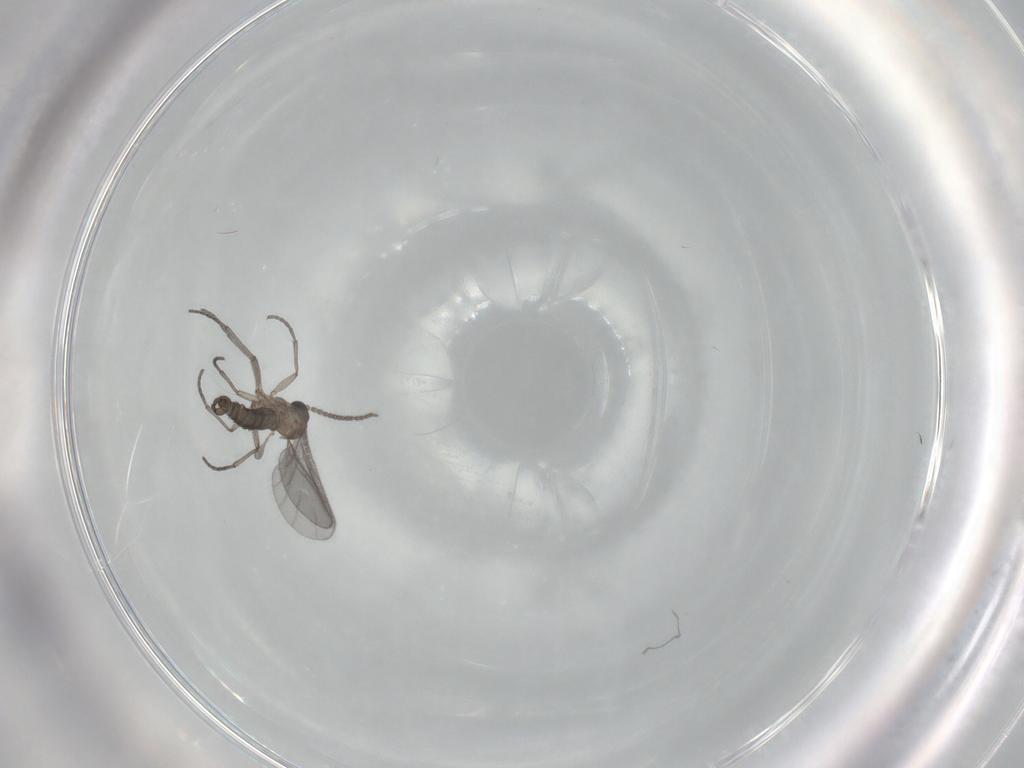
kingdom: Animalia
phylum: Arthropoda
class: Insecta
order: Diptera
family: Sciaridae
